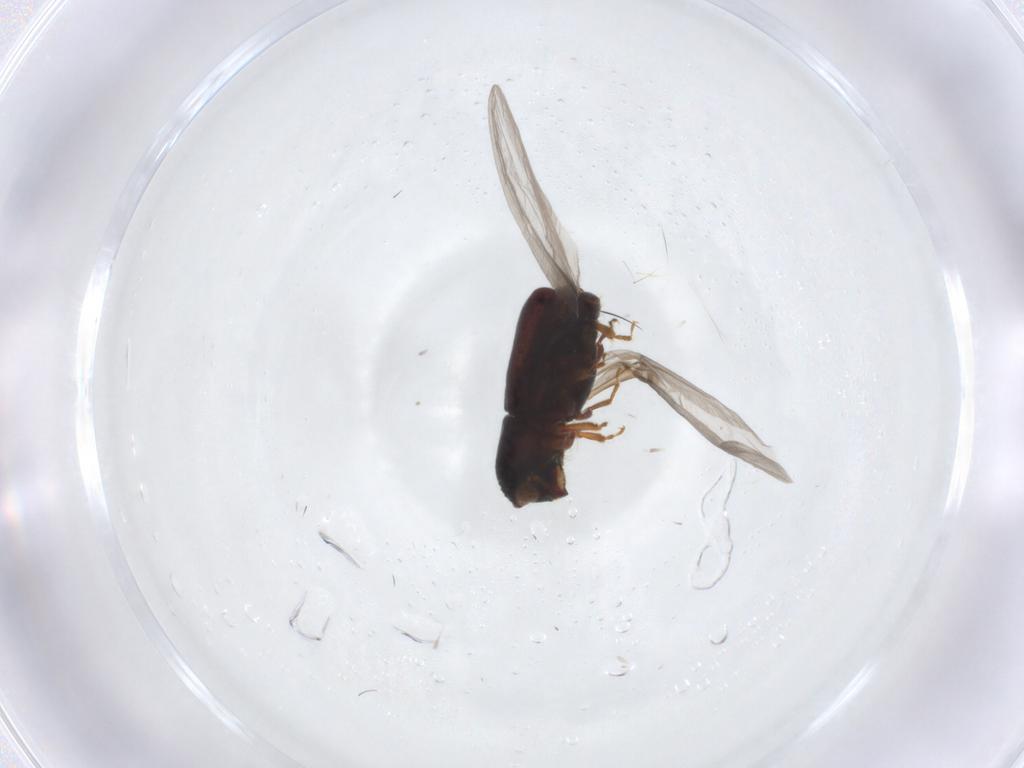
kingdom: Animalia
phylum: Arthropoda
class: Insecta
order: Coleoptera
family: Curculionidae
